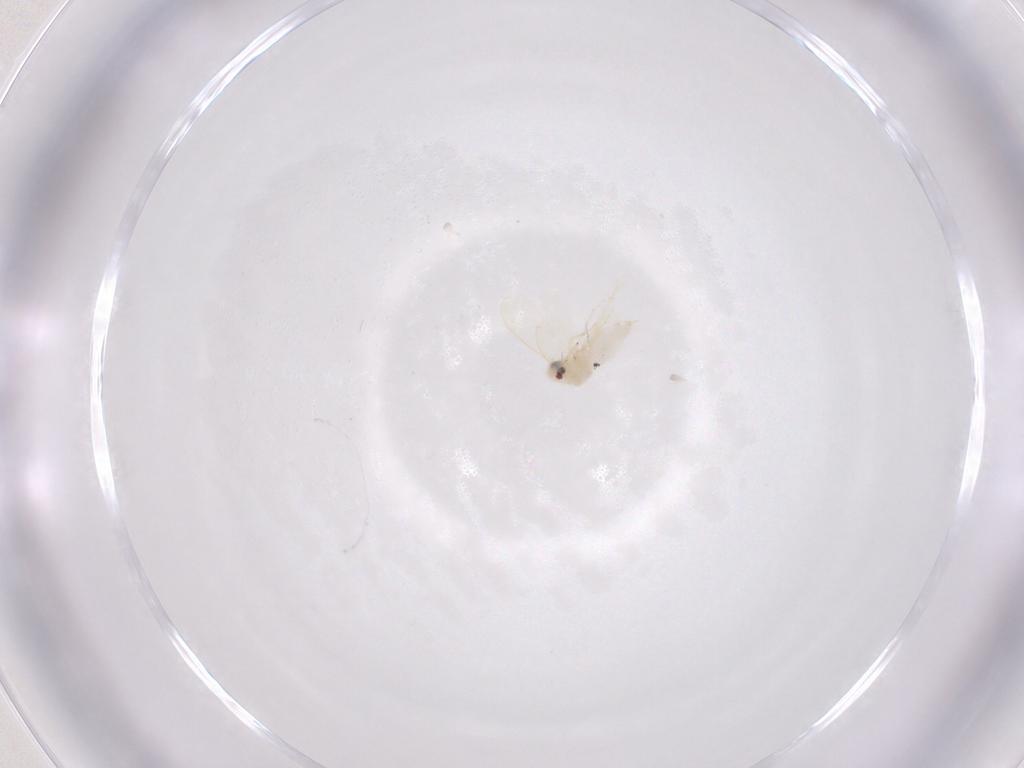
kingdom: Animalia
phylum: Arthropoda
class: Insecta
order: Hemiptera
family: Aleyrodidae
